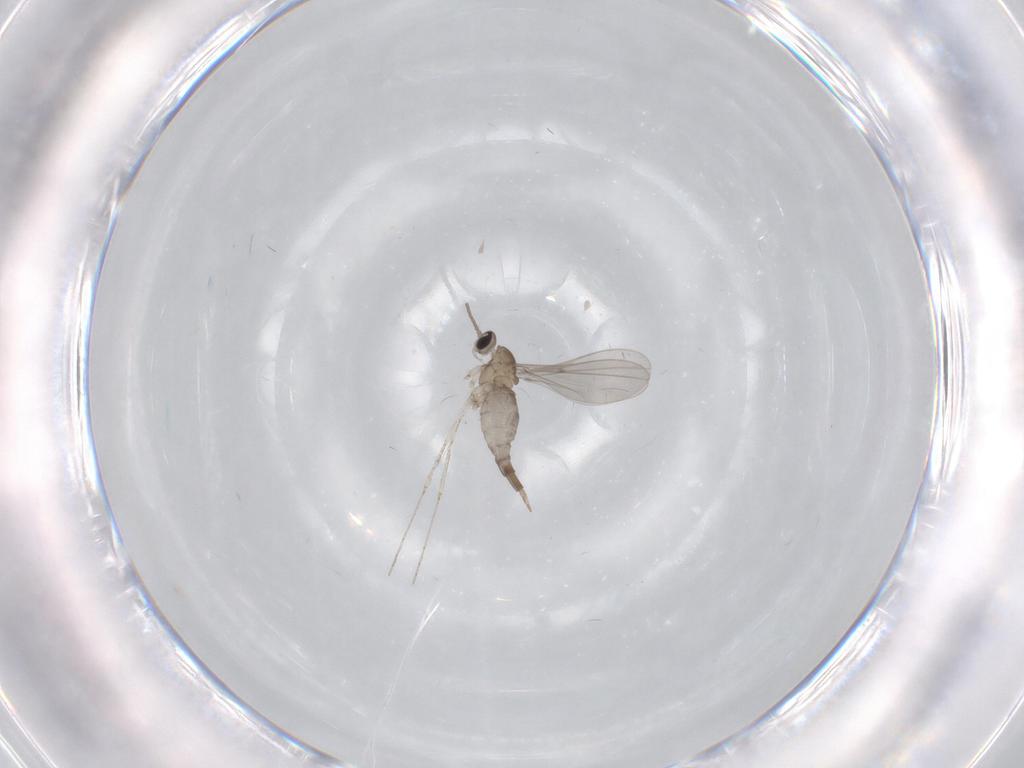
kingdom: Animalia
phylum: Arthropoda
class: Insecta
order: Diptera
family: Cecidomyiidae
